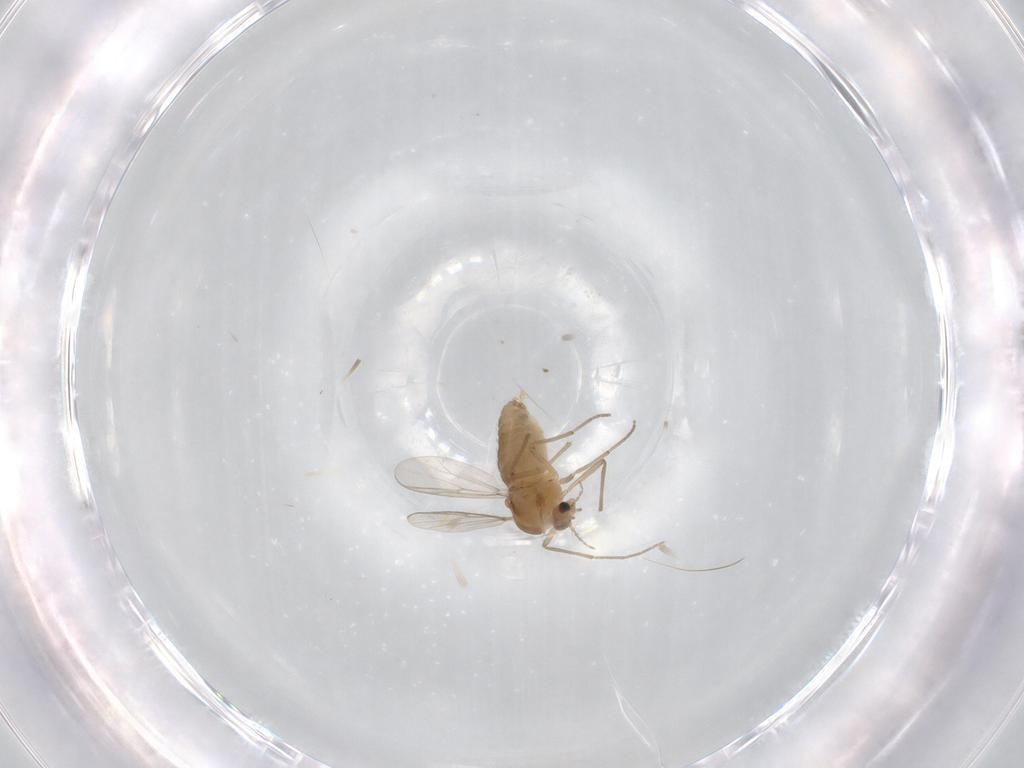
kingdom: Animalia
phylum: Arthropoda
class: Insecta
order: Diptera
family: Chironomidae
